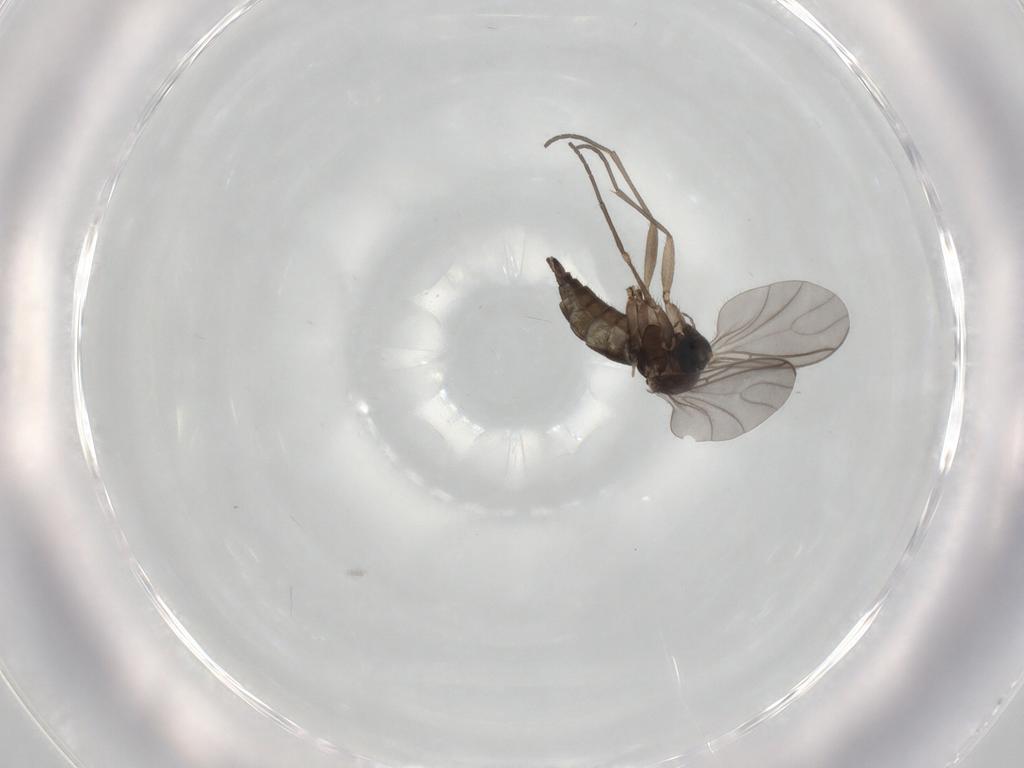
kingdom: Animalia
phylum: Arthropoda
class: Insecta
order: Diptera
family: Sciaridae
